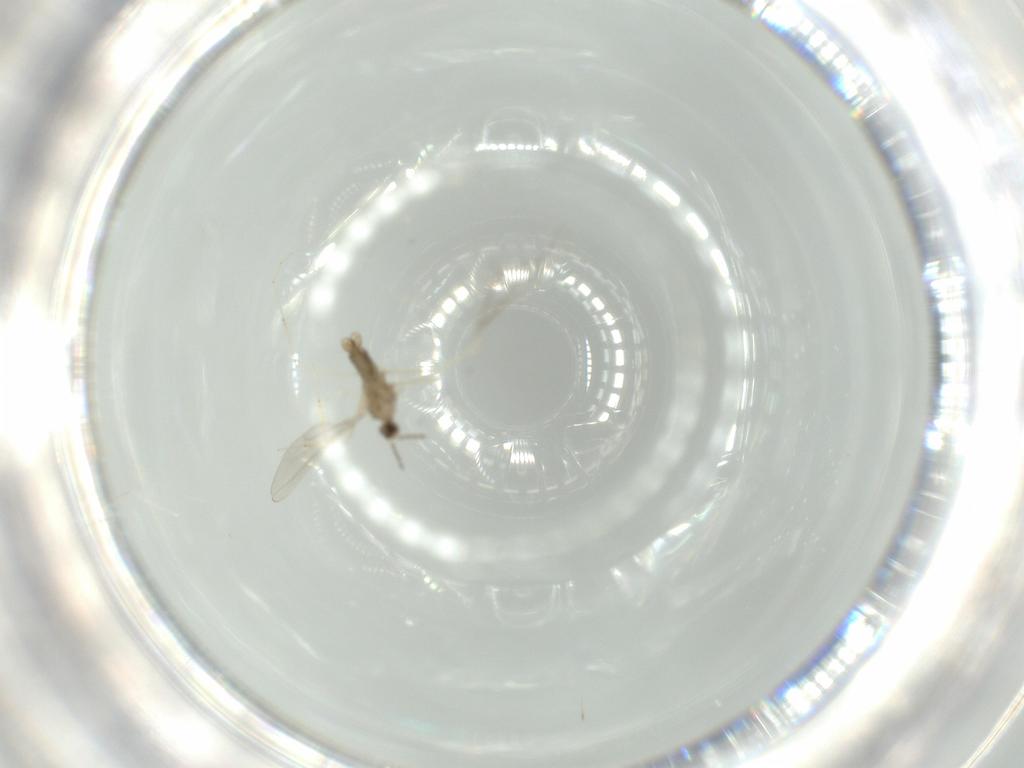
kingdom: Animalia
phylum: Arthropoda
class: Insecta
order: Diptera
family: Cecidomyiidae
